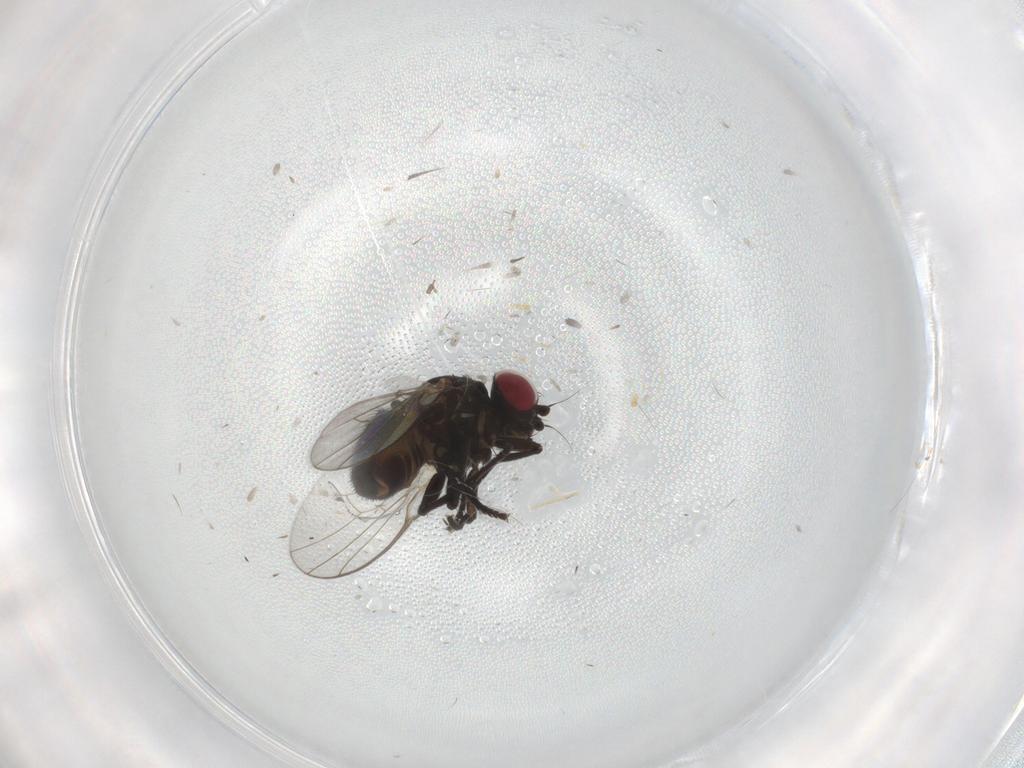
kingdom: Animalia
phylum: Arthropoda
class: Insecta
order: Diptera
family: Agromyzidae
